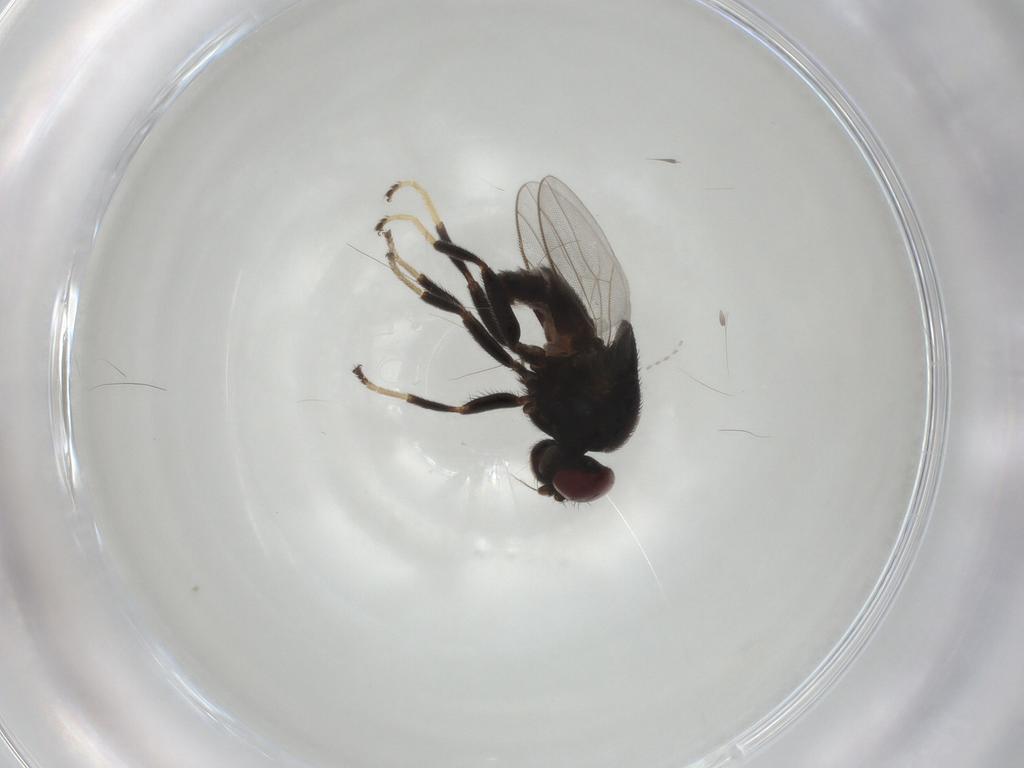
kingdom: Animalia
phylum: Arthropoda
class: Insecta
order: Diptera
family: Chloropidae
